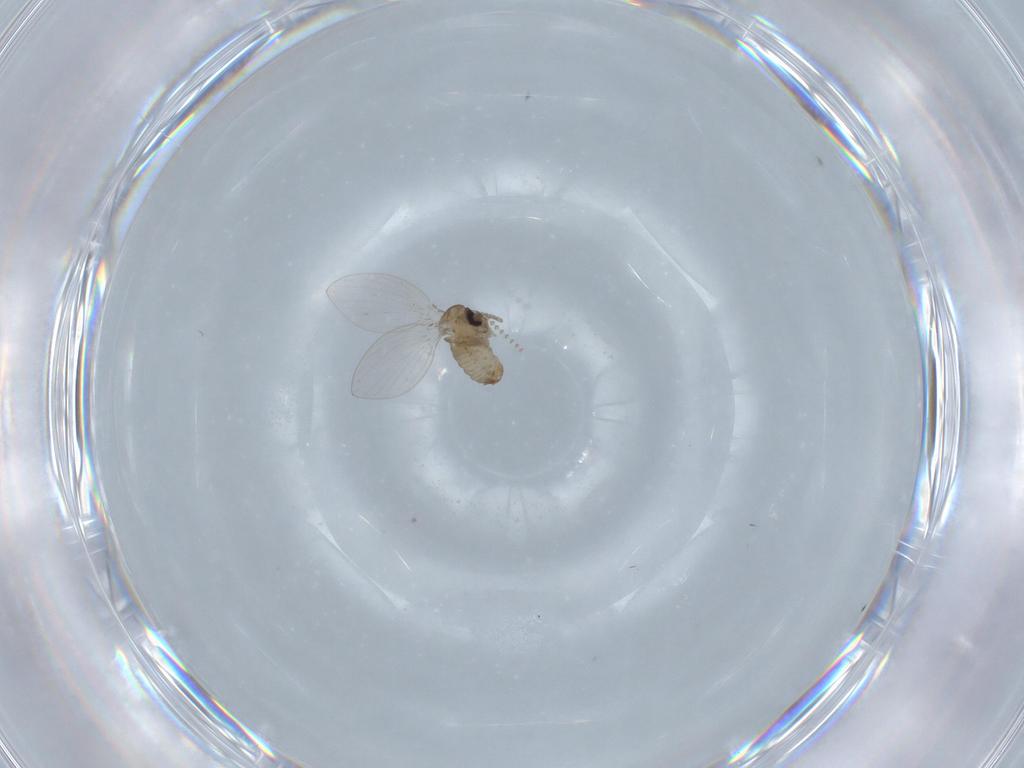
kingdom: Animalia
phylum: Arthropoda
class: Insecta
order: Diptera
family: Psychodidae
